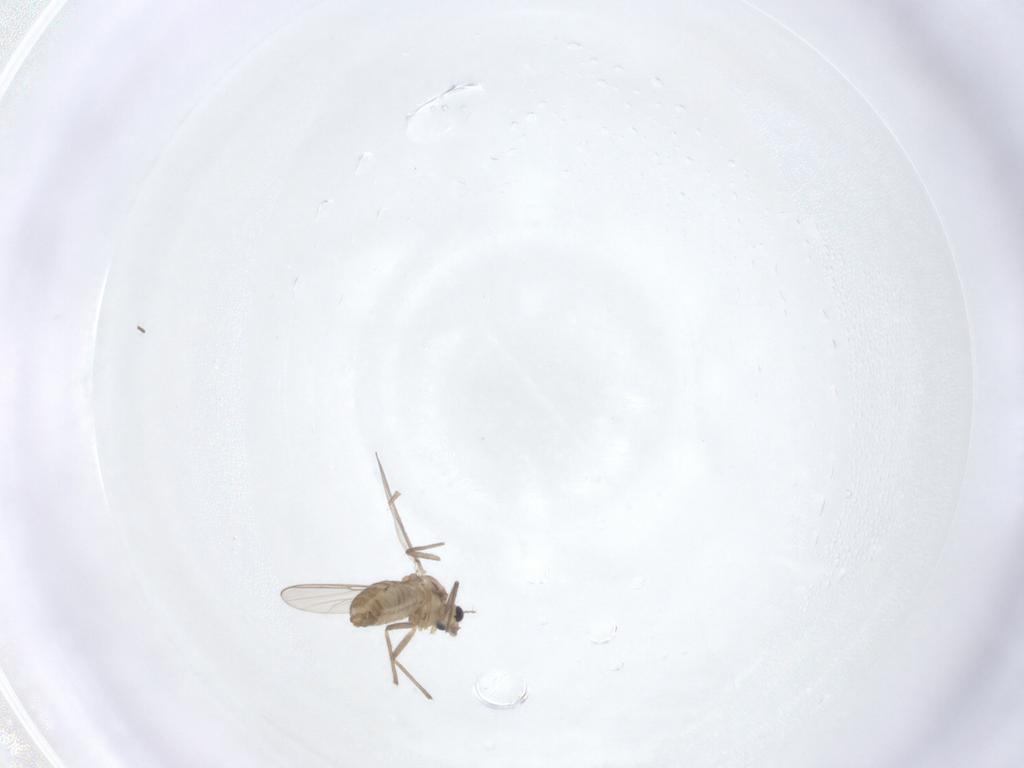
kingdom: Animalia
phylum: Arthropoda
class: Insecta
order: Diptera
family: Chironomidae
